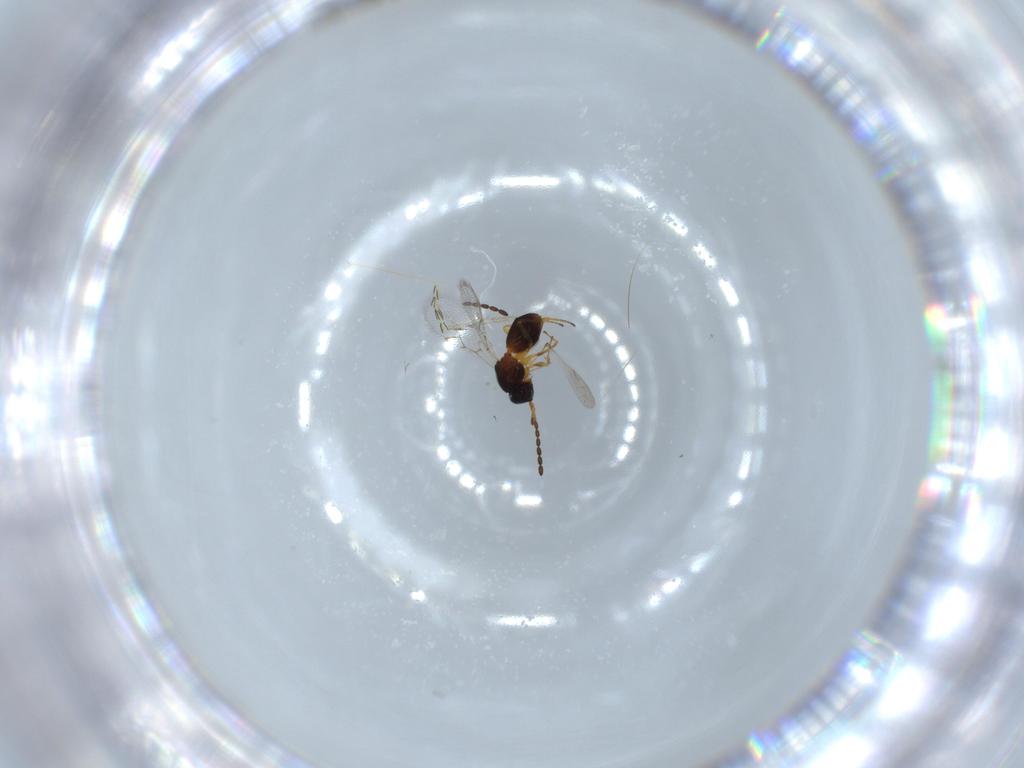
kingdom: Animalia
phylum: Arthropoda
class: Insecta
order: Hymenoptera
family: Figitidae
